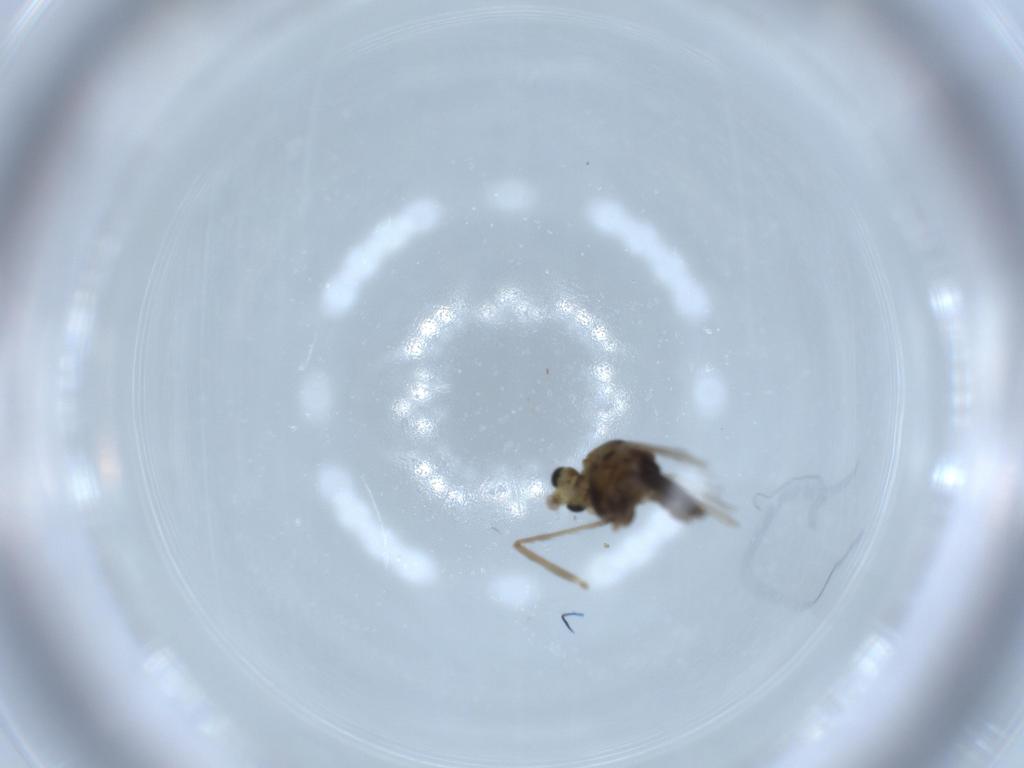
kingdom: Animalia
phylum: Arthropoda
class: Insecta
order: Diptera
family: Chironomidae
